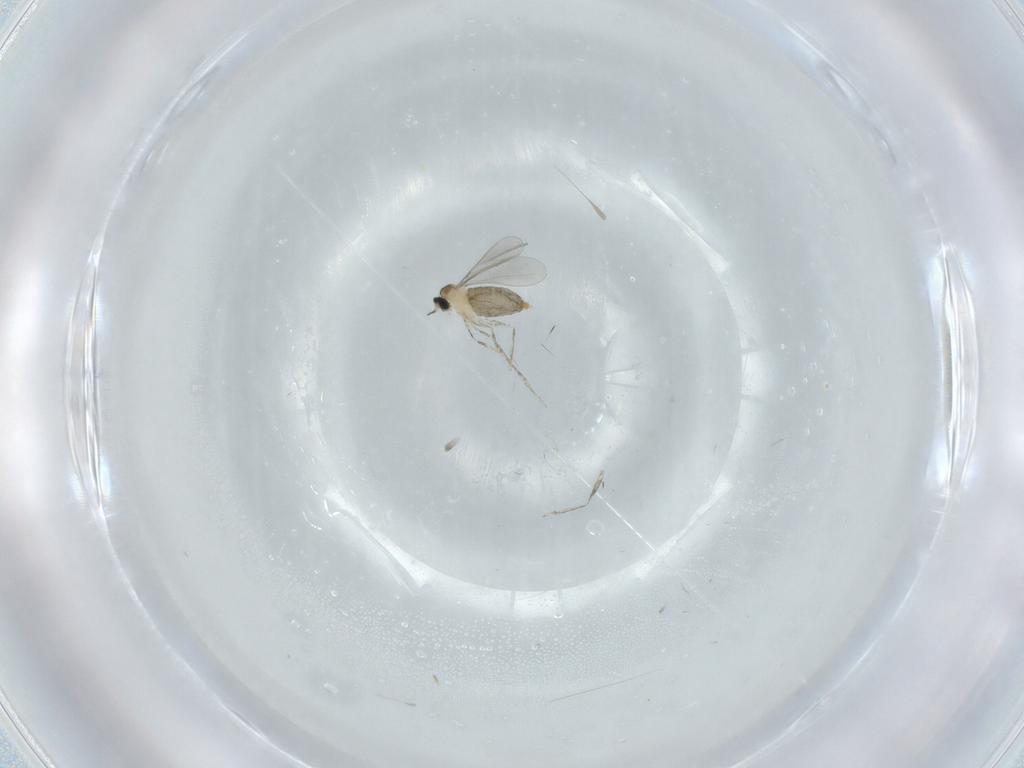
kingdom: Animalia
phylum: Arthropoda
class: Insecta
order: Diptera
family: Cecidomyiidae
